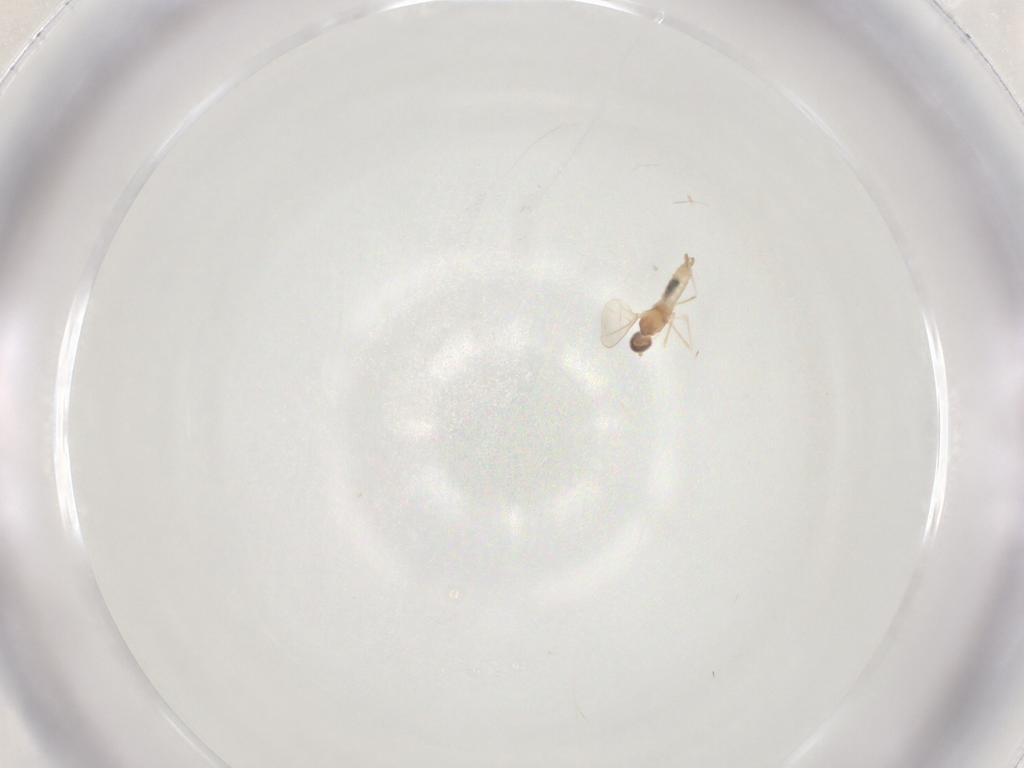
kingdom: Animalia
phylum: Arthropoda
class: Insecta
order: Diptera
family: Cecidomyiidae
